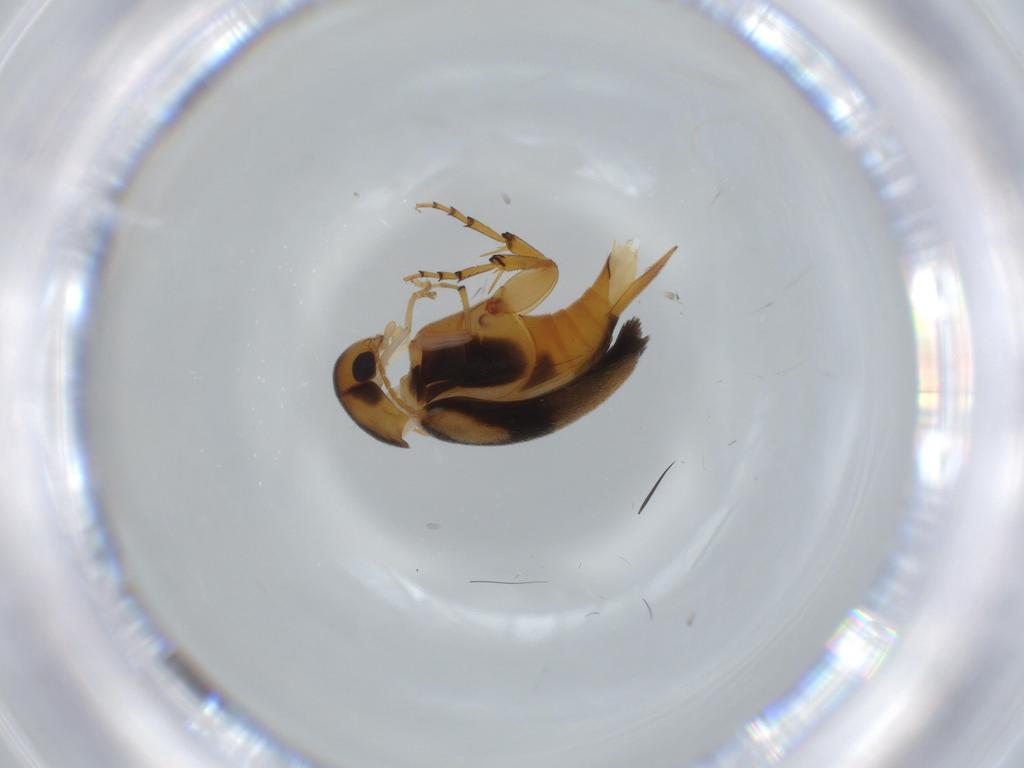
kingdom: Animalia
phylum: Arthropoda
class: Insecta
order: Coleoptera
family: Mordellidae
